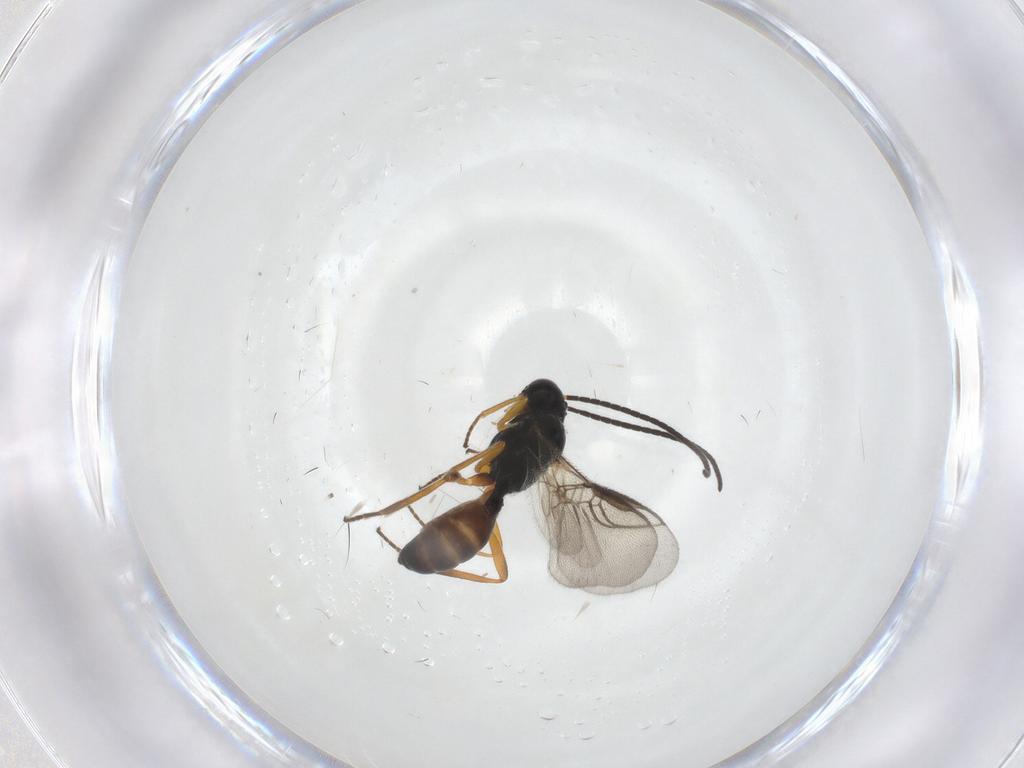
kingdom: Animalia
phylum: Arthropoda
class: Insecta
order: Hymenoptera
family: Braconidae
